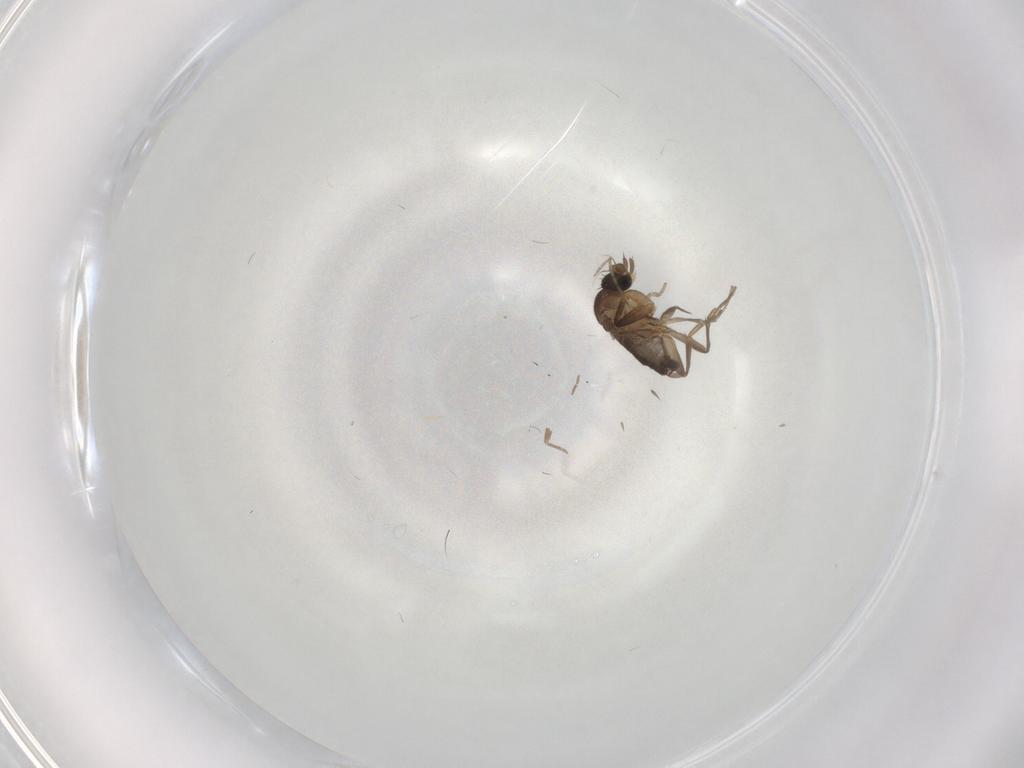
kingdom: Animalia
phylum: Arthropoda
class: Insecta
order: Diptera
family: Phoridae
